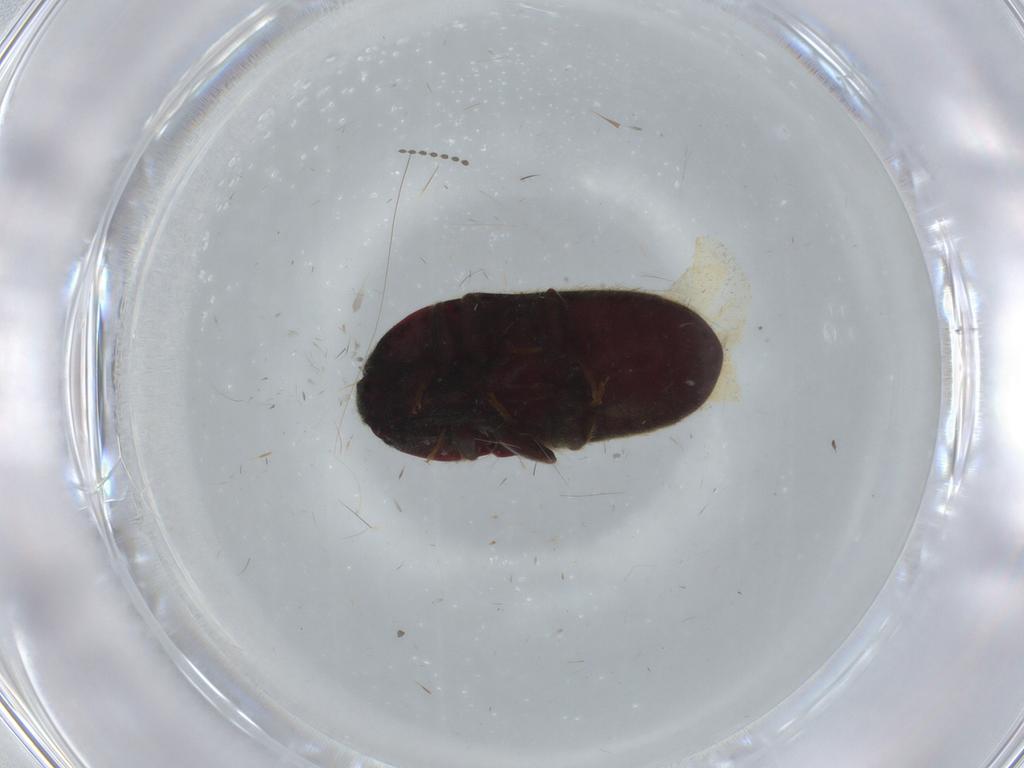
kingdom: Animalia
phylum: Arthropoda
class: Insecta
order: Coleoptera
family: Throscidae
